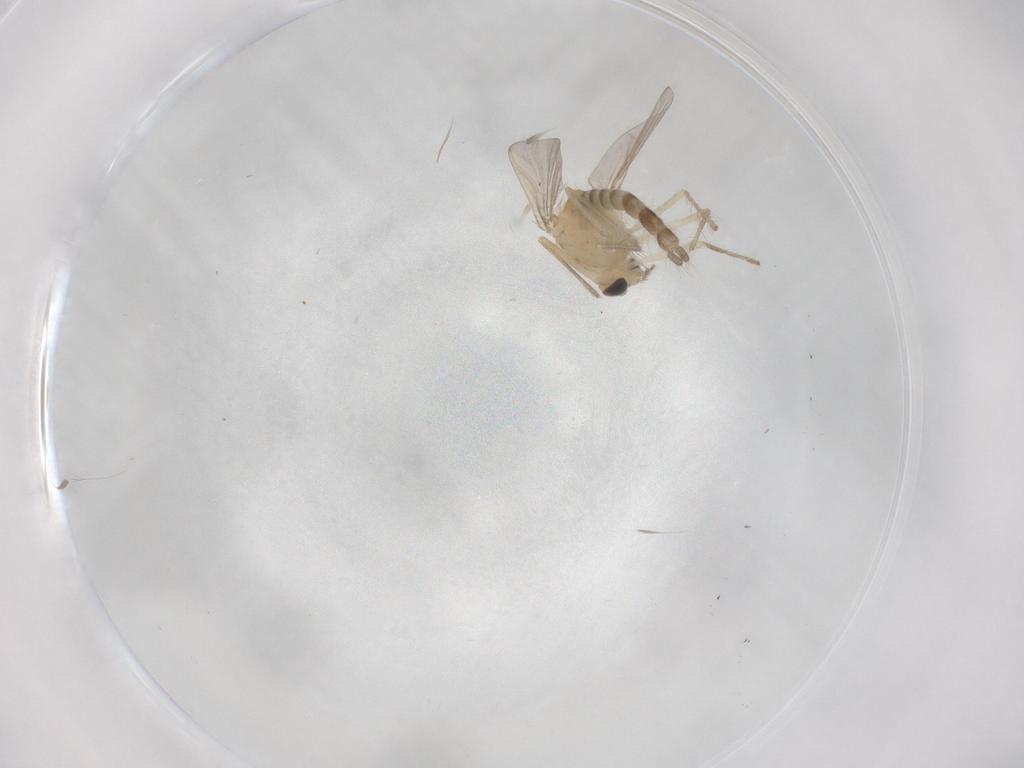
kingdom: Animalia
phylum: Arthropoda
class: Insecta
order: Diptera
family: Chironomidae
